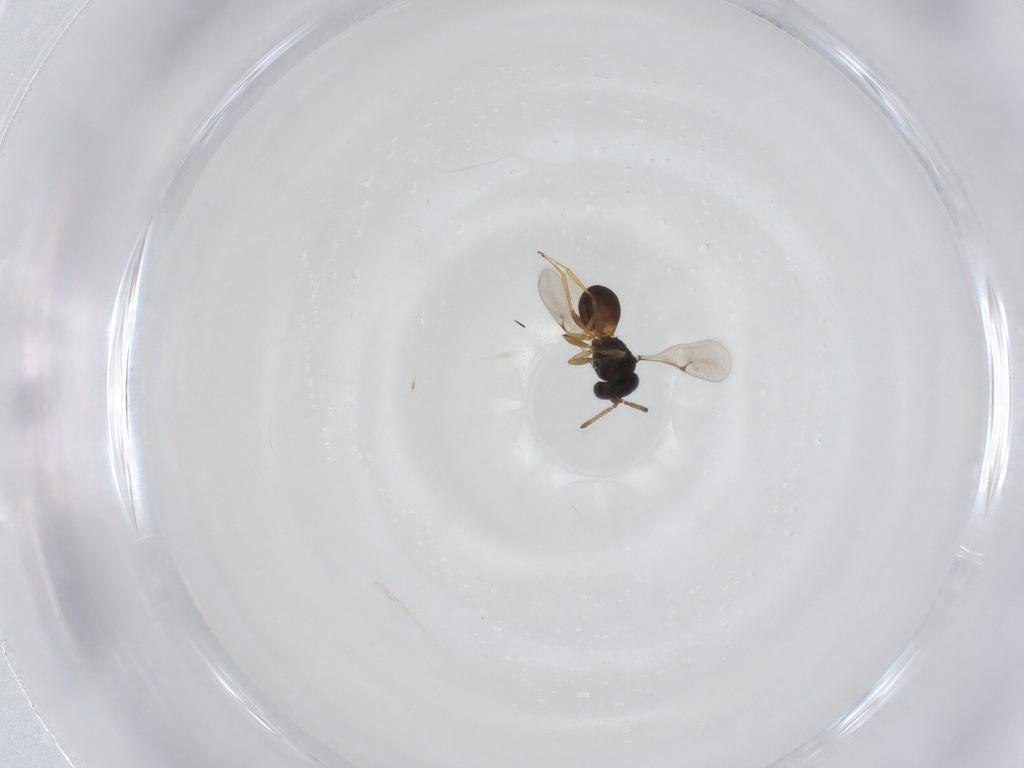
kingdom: Animalia
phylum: Arthropoda
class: Insecta
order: Hymenoptera
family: Scelionidae
